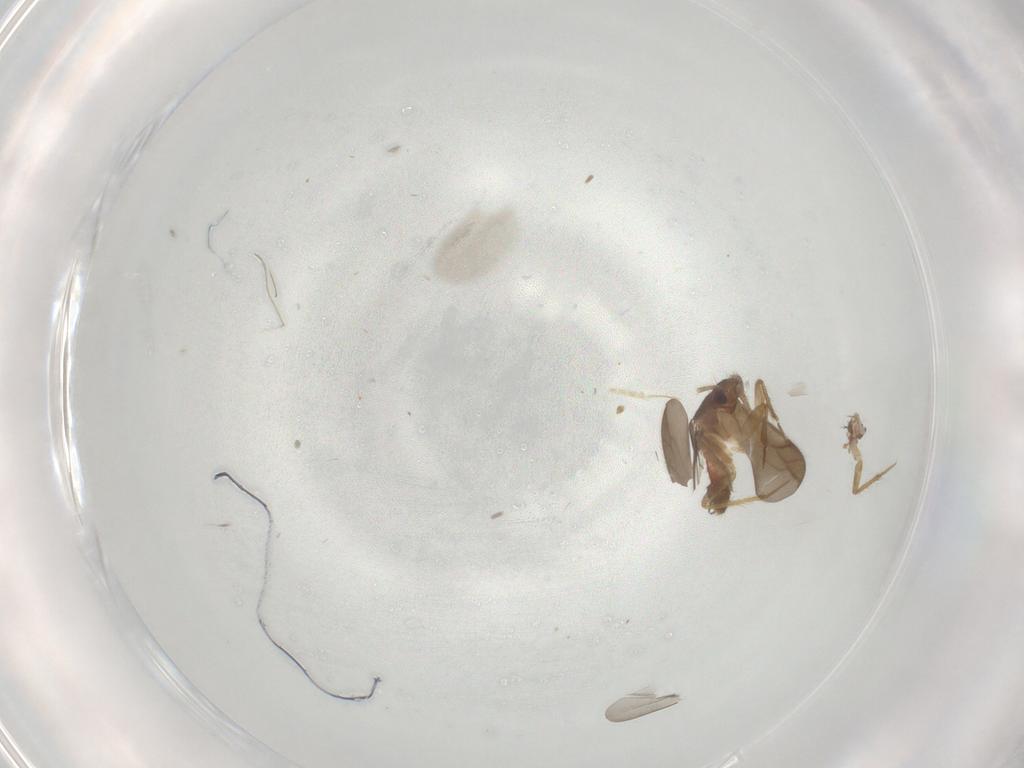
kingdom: Animalia
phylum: Arthropoda
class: Insecta
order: Hemiptera
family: Ceratocombidae
